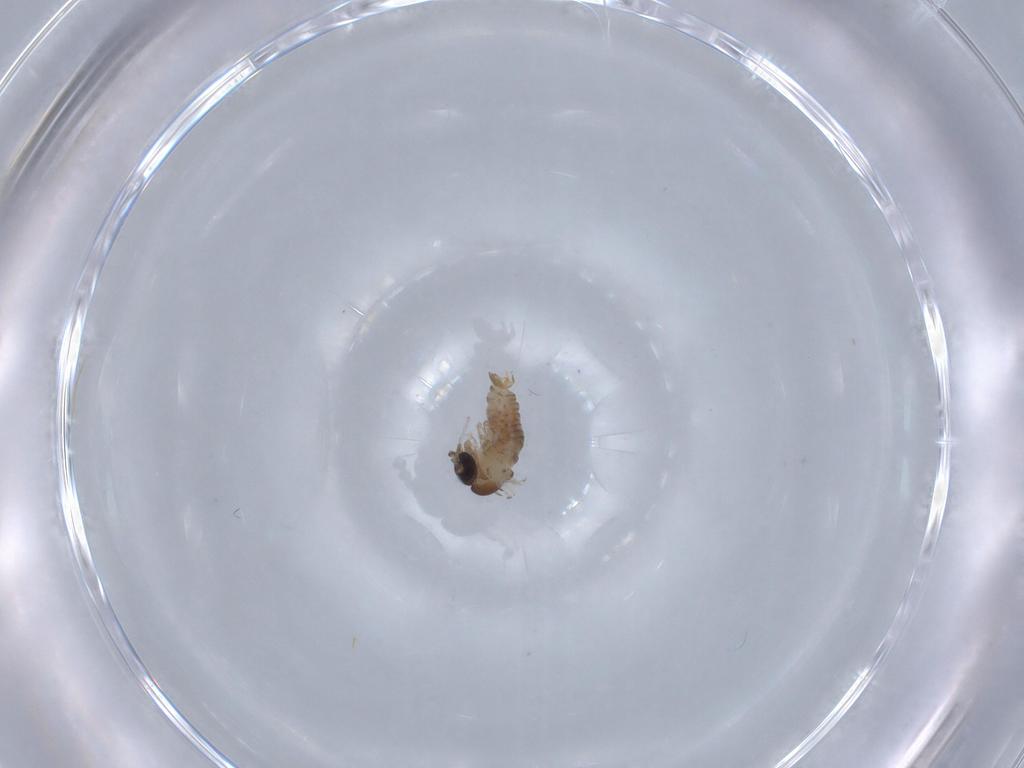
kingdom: Animalia
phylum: Arthropoda
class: Insecta
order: Diptera
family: Psychodidae
